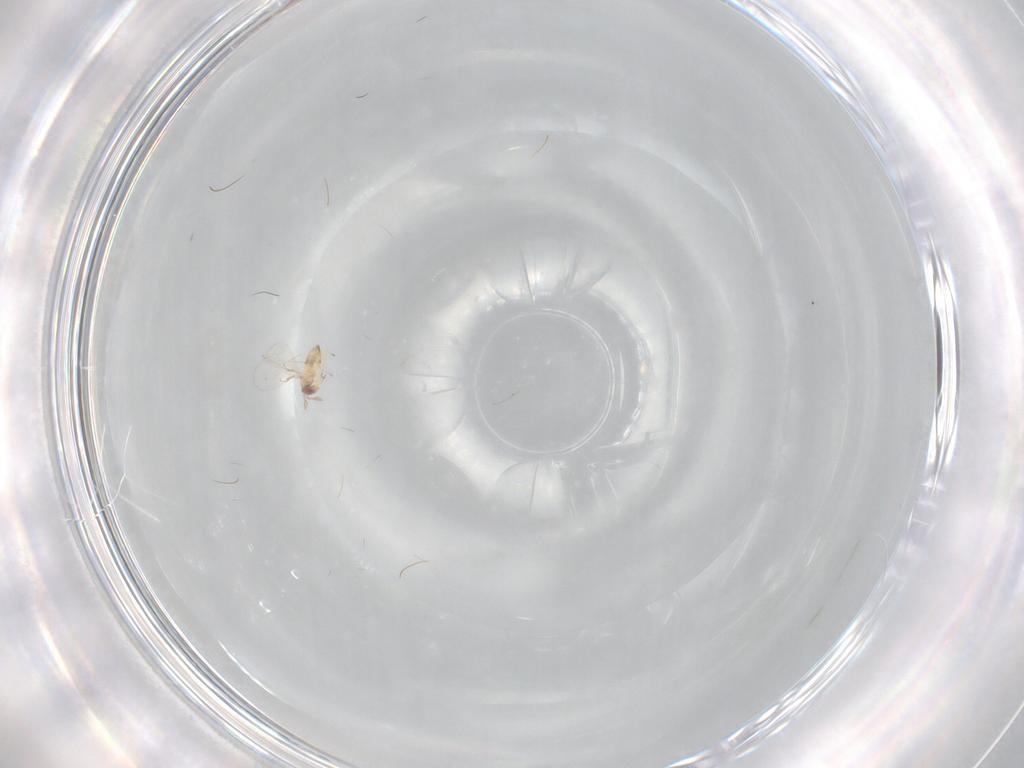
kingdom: Animalia
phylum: Arthropoda
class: Insecta
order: Hymenoptera
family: Trichogrammatidae
